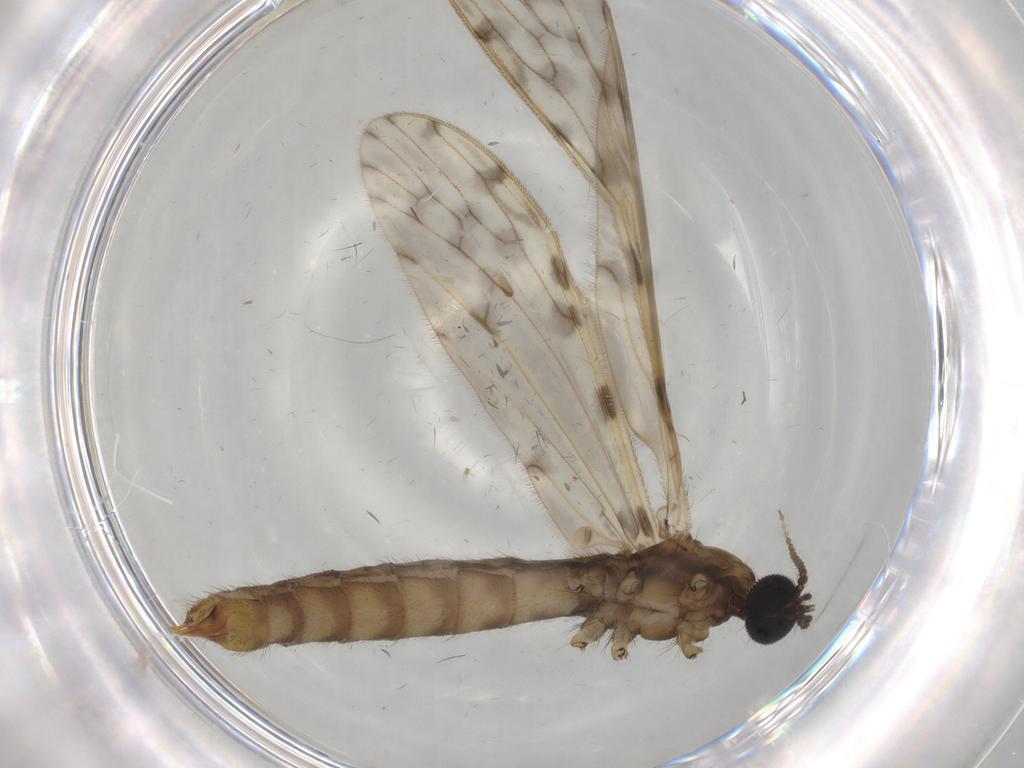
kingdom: Animalia
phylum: Arthropoda
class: Insecta
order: Diptera
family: Limoniidae
